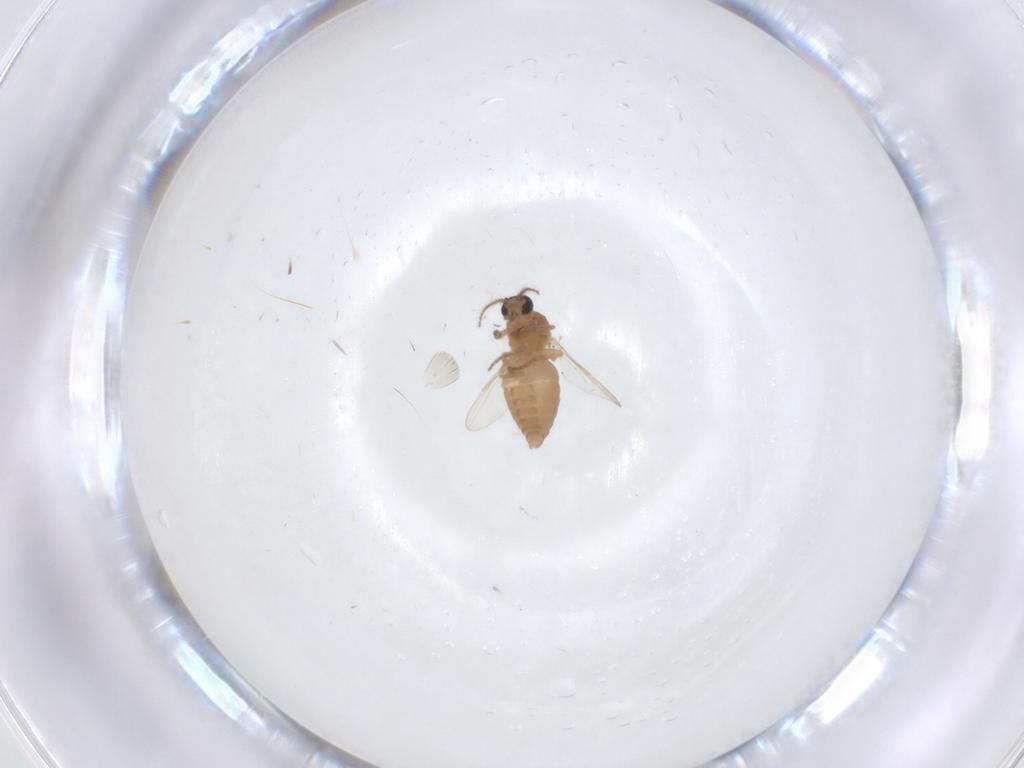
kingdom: Animalia
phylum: Arthropoda
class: Insecta
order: Diptera
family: Ceratopogonidae
